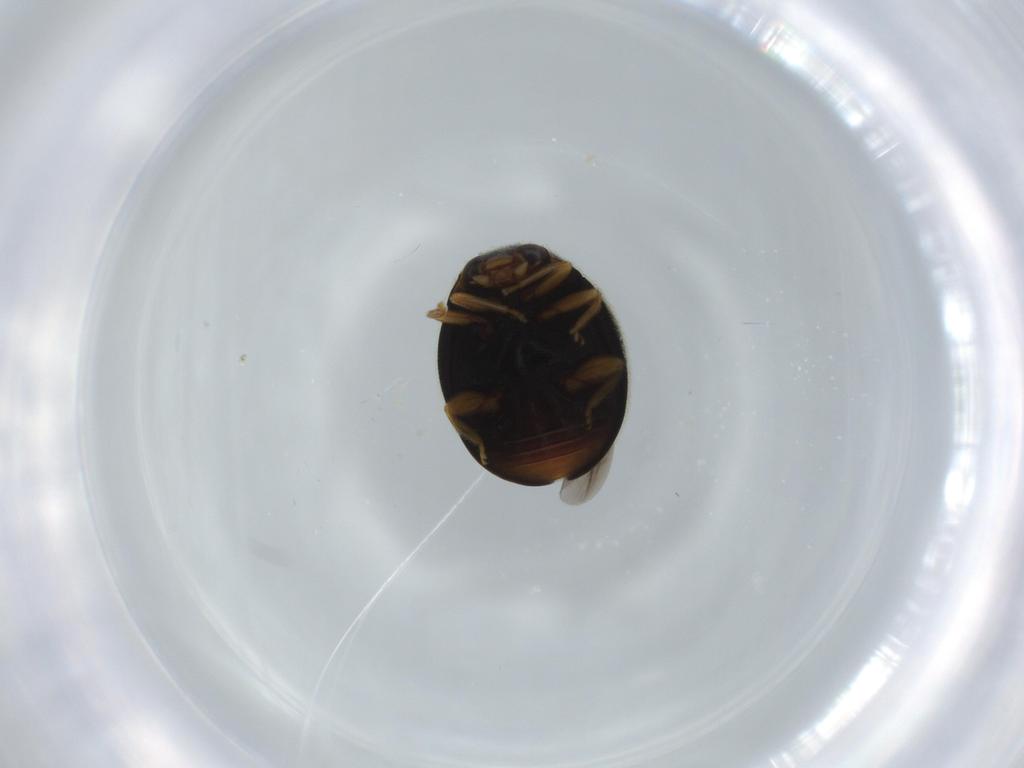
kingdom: Animalia
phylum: Arthropoda
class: Insecta
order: Coleoptera
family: Coccinellidae
